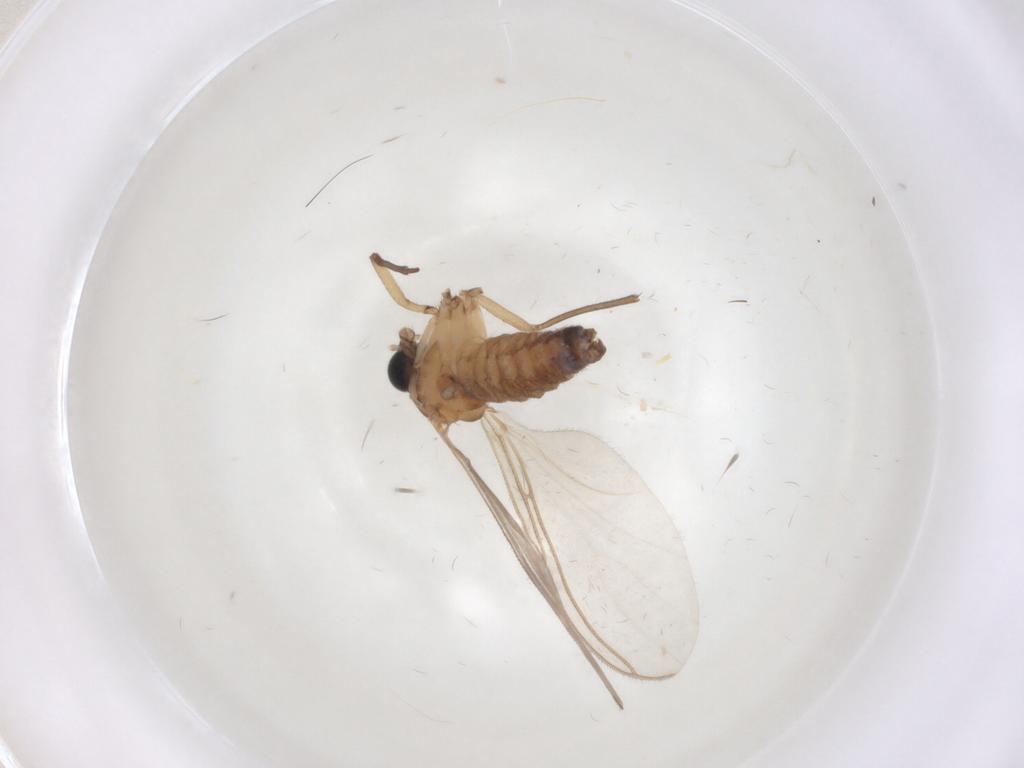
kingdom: Animalia
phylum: Arthropoda
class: Insecta
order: Diptera
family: Sciaridae
